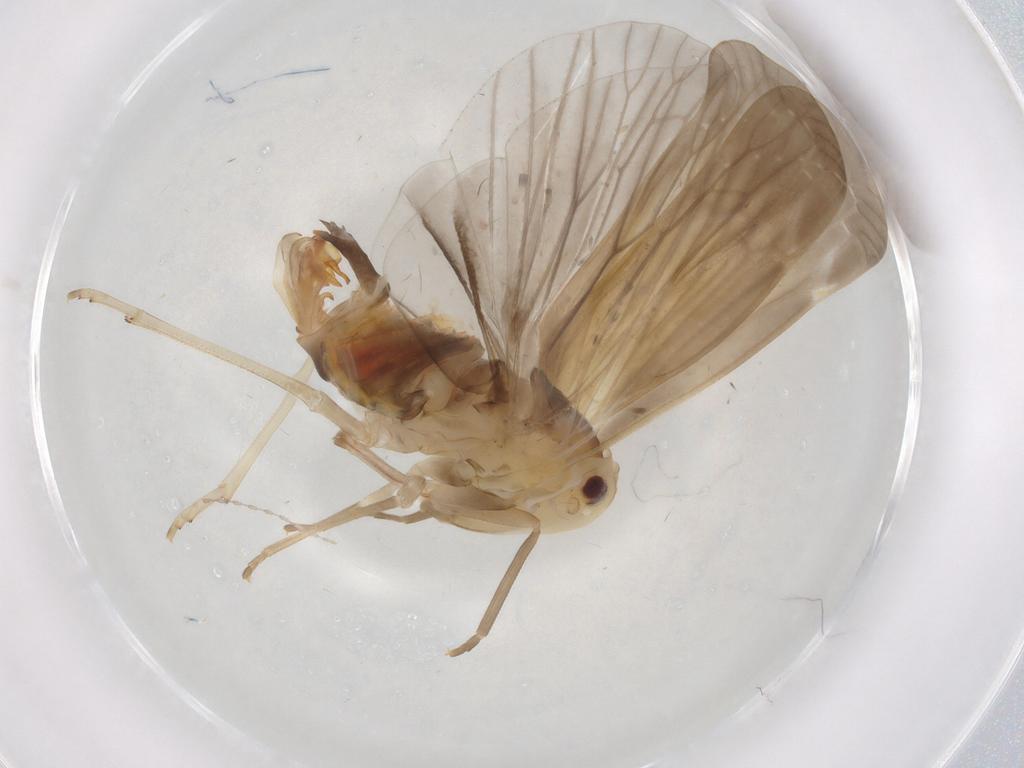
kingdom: Animalia
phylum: Arthropoda
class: Insecta
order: Hemiptera
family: Derbidae
